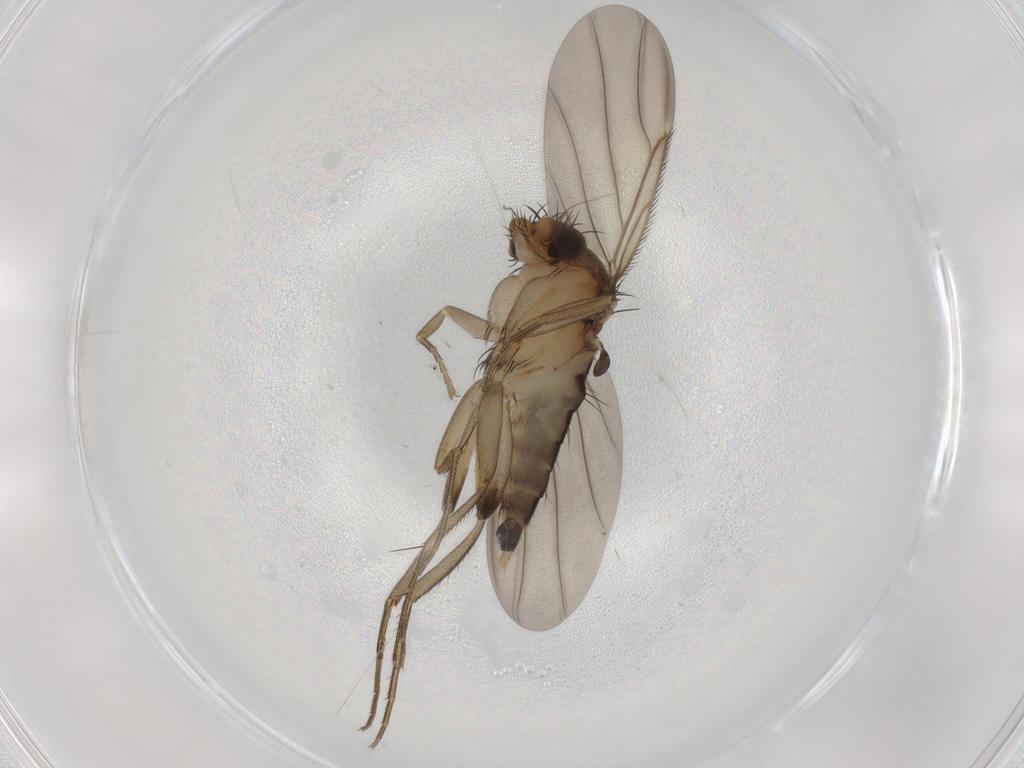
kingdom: Animalia
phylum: Arthropoda
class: Insecta
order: Diptera
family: Phoridae
